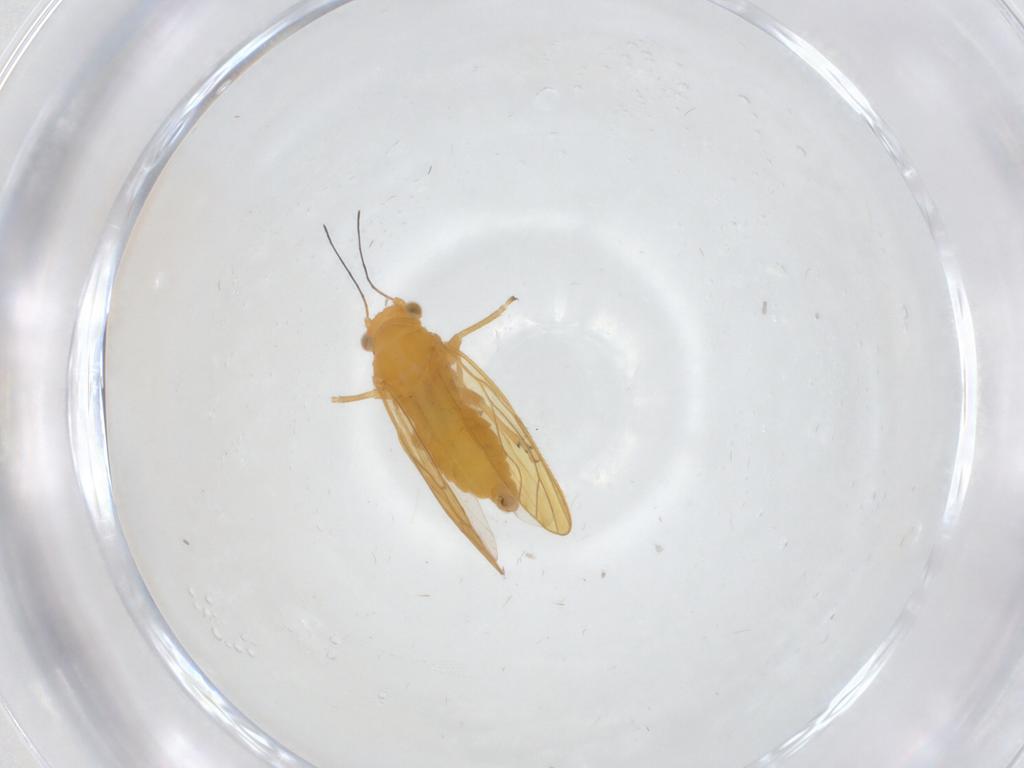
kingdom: Animalia
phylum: Arthropoda
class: Insecta
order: Hemiptera
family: Psyllidae
